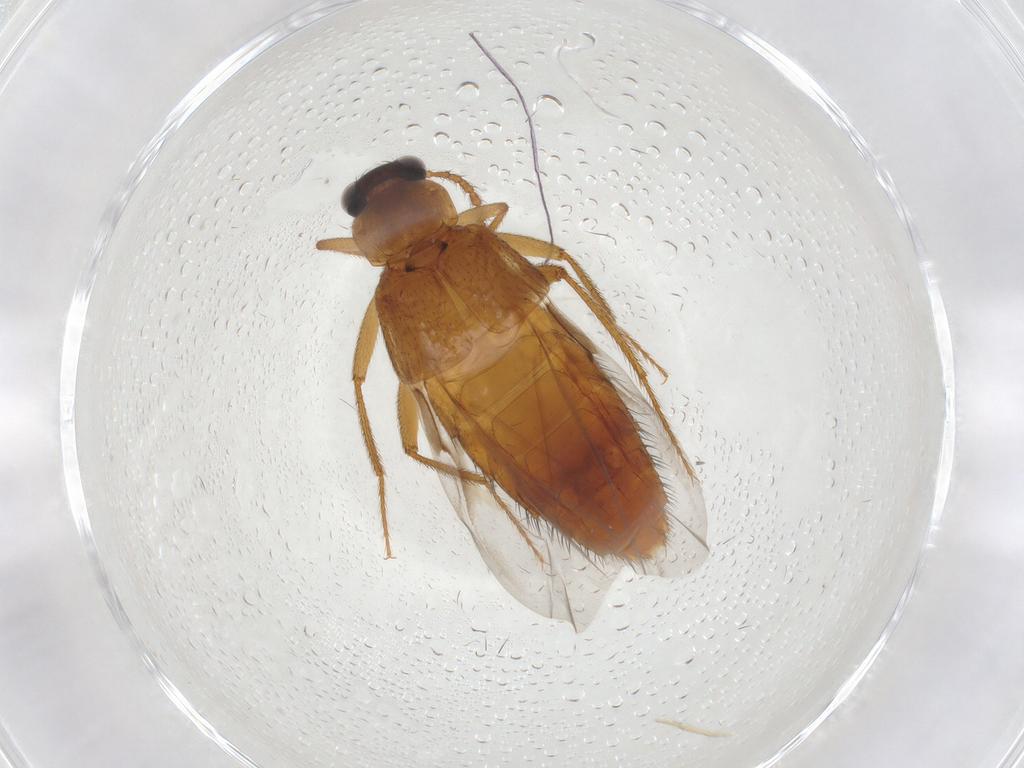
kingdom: Animalia
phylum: Arthropoda
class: Insecta
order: Coleoptera
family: Staphylinidae
